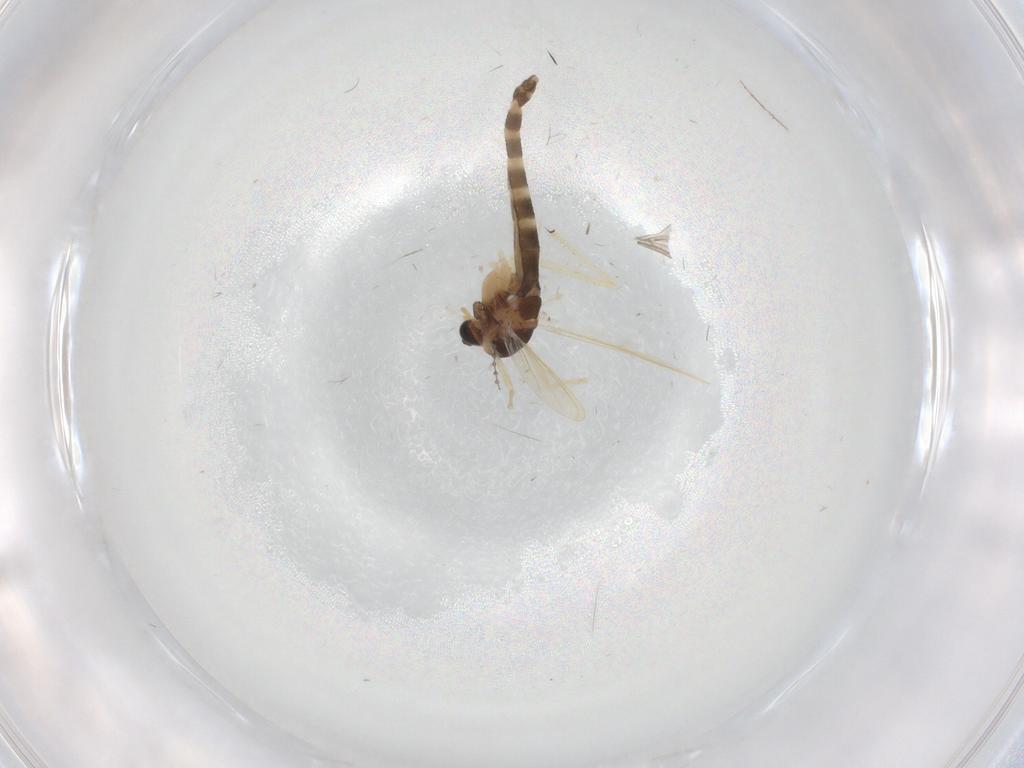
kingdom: Animalia
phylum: Arthropoda
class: Insecta
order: Diptera
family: Chironomidae
